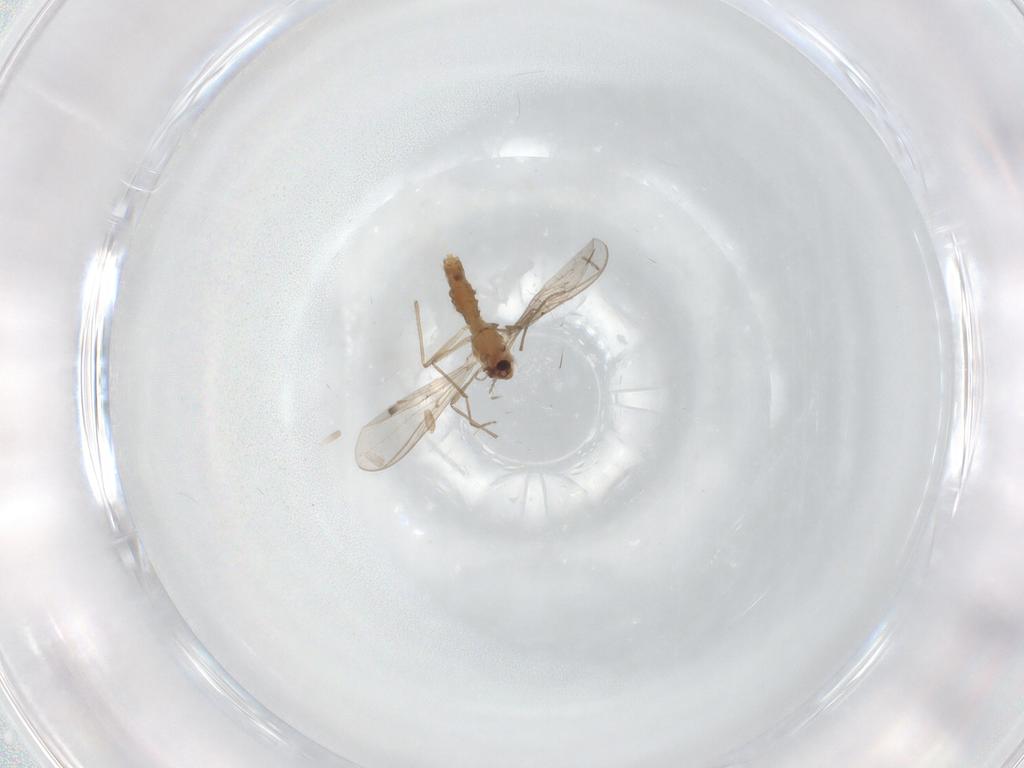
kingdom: Animalia
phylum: Arthropoda
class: Insecta
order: Diptera
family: Chironomidae
